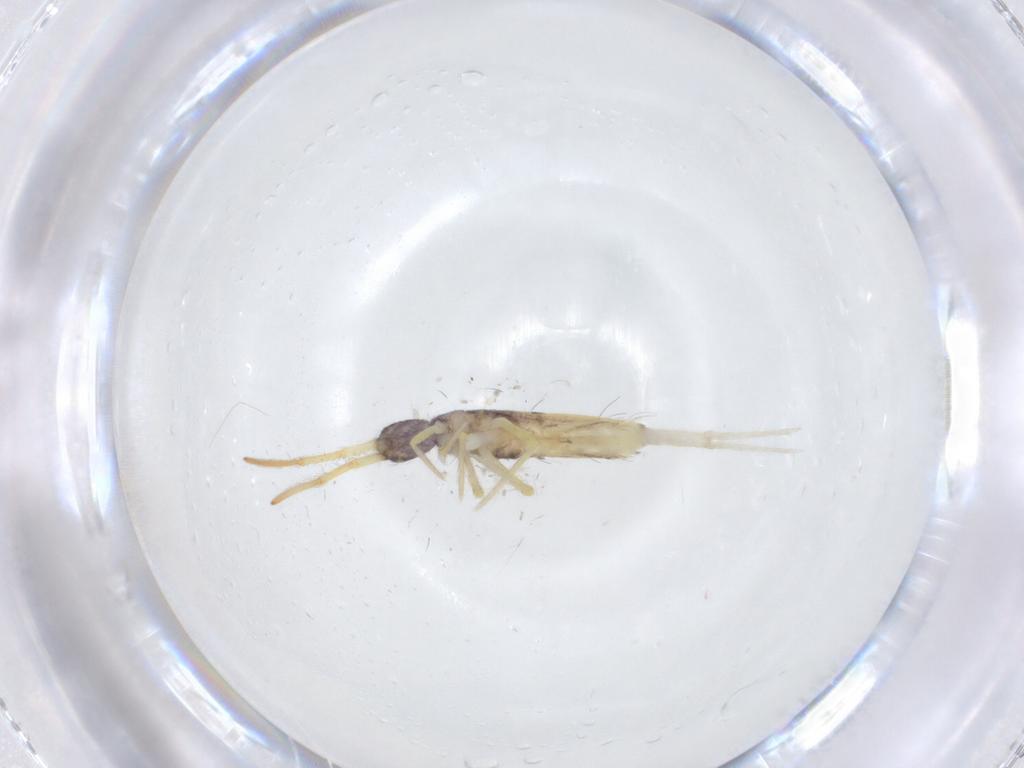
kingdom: Animalia
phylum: Arthropoda
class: Collembola
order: Entomobryomorpha
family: Entomobryidae
